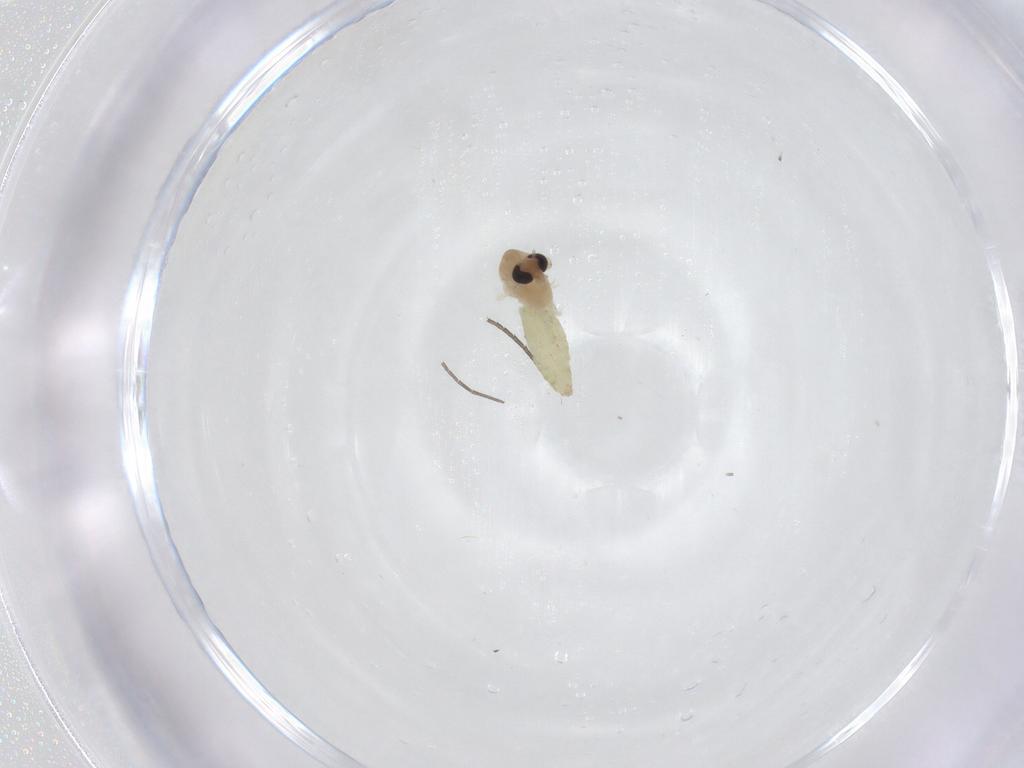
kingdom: Animalia
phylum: Arthropoda
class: Insecta
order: Diptera
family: Chironomidae
